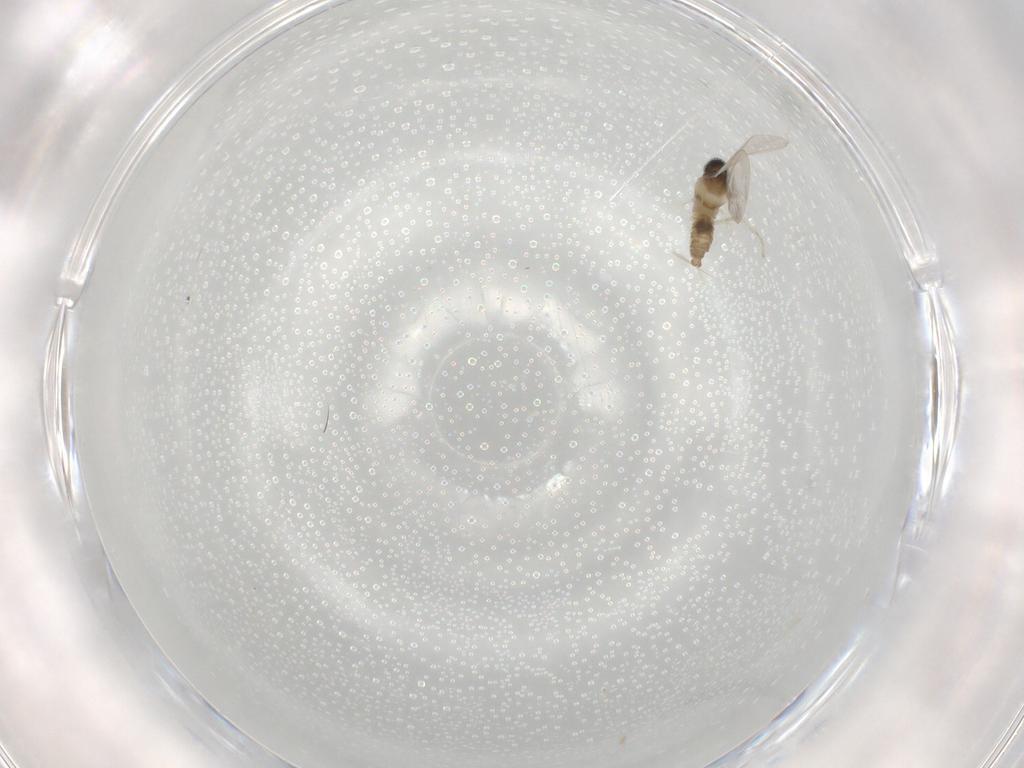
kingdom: Animalia
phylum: Arthropoda
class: Insecta
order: Diptera
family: Cecidomyiidae
